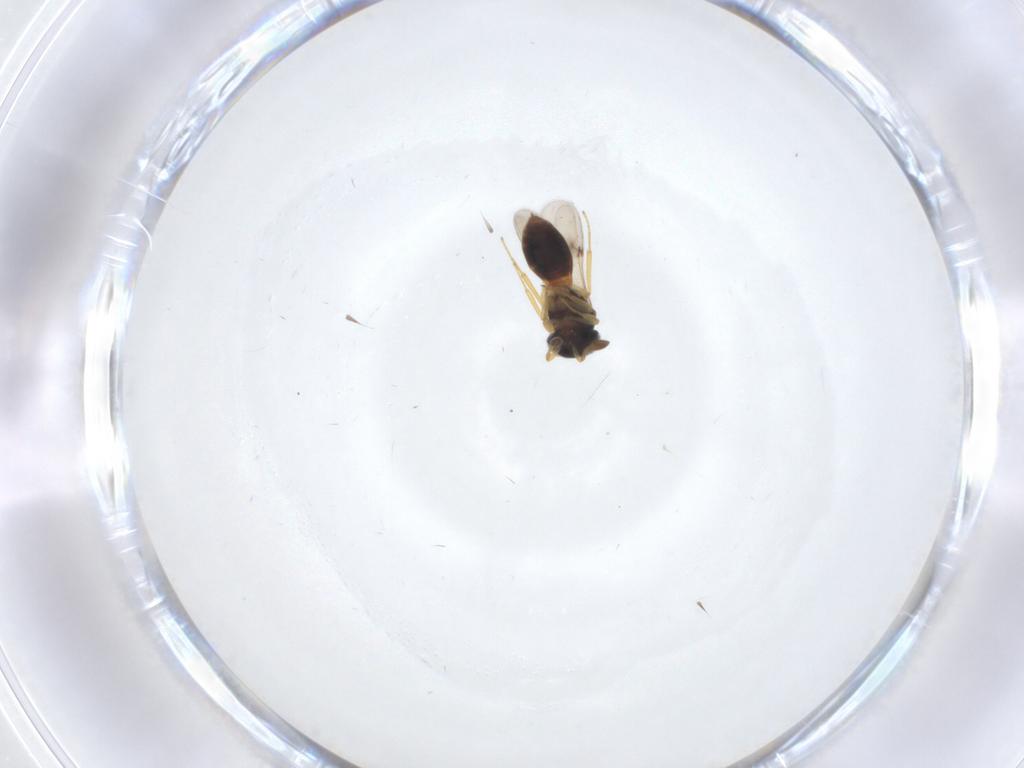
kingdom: Animalia
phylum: Arthropoda
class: Insecta
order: Hymenoptera
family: Scelionidae
